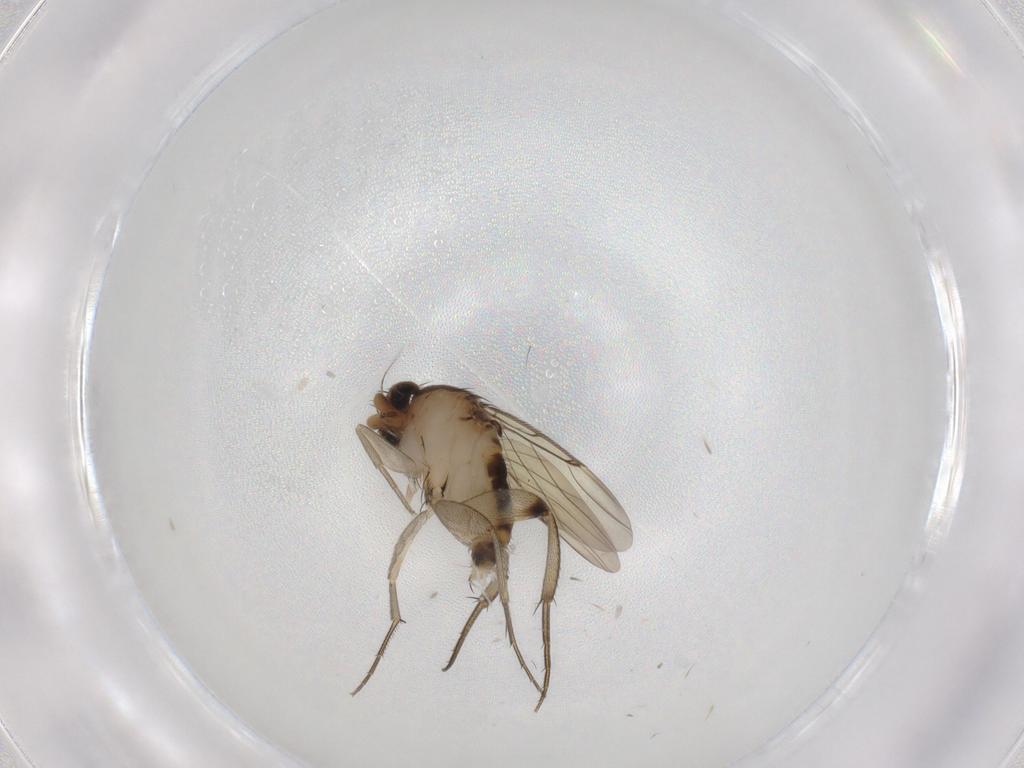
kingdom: Animalia
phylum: Arthropoda
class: Insecta
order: Diptera
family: Phoridae
